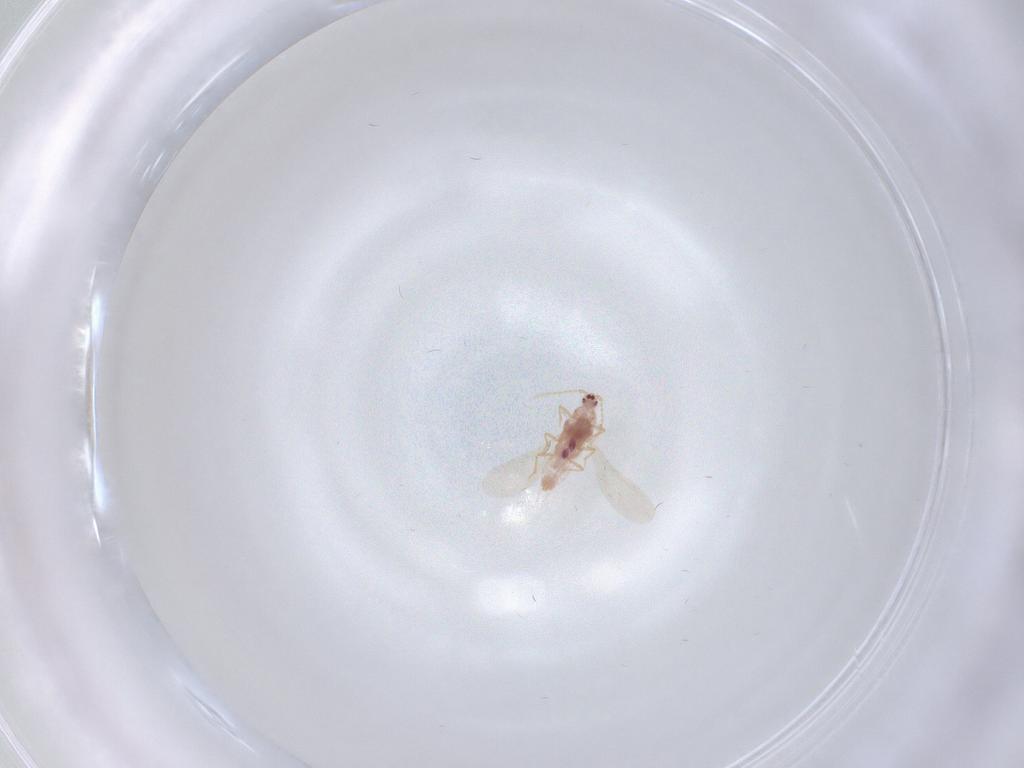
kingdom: Animalia
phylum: Arthropoda
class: Insecta
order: Hemiptera
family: Pseudococcidae
